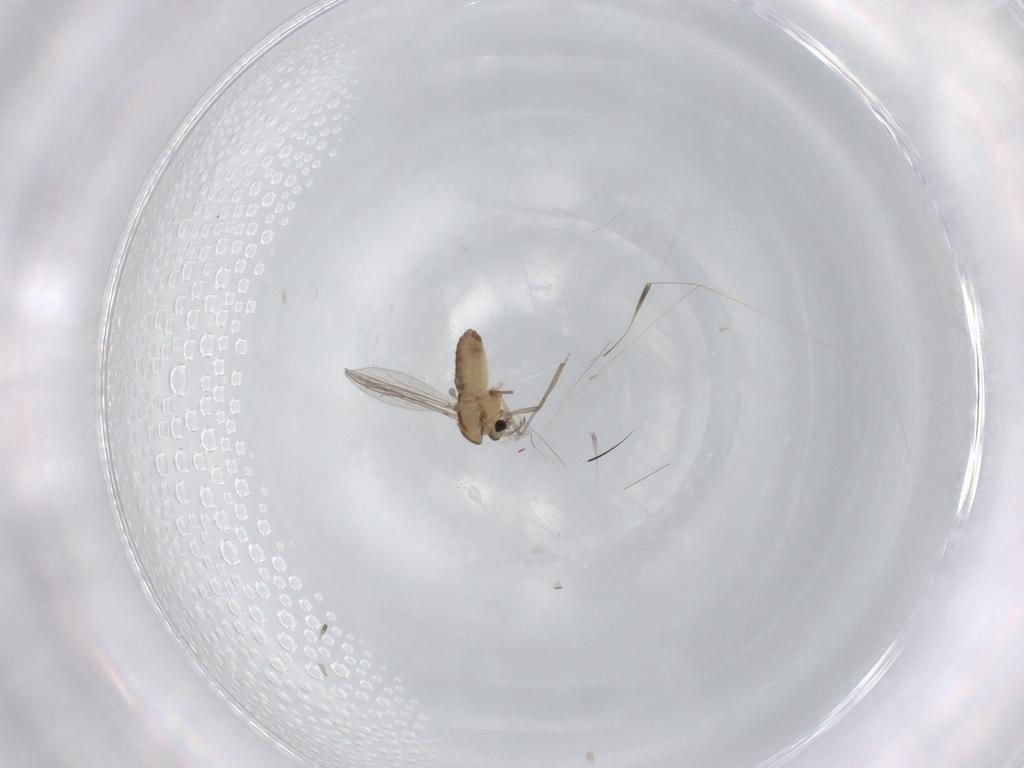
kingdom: Animalia
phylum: Arthropoda
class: Insecta
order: Diptera
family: Cecidomyiidae
